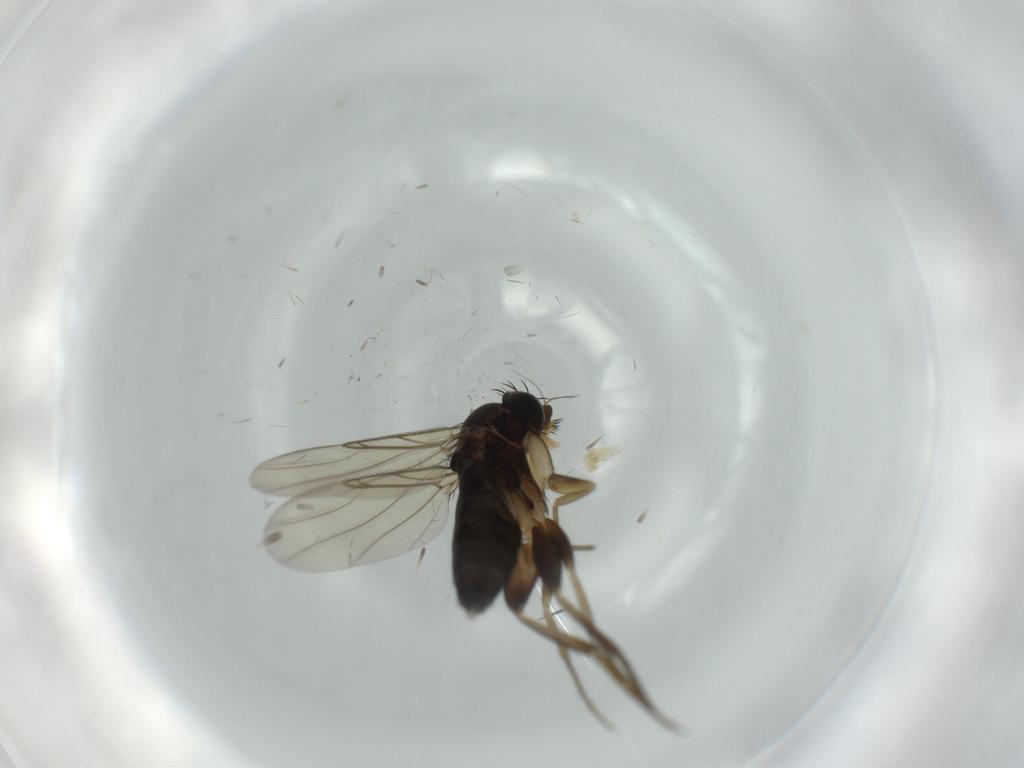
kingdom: Animalia
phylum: Arthropoda
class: Insecta
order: Diptera
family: Phoridae
